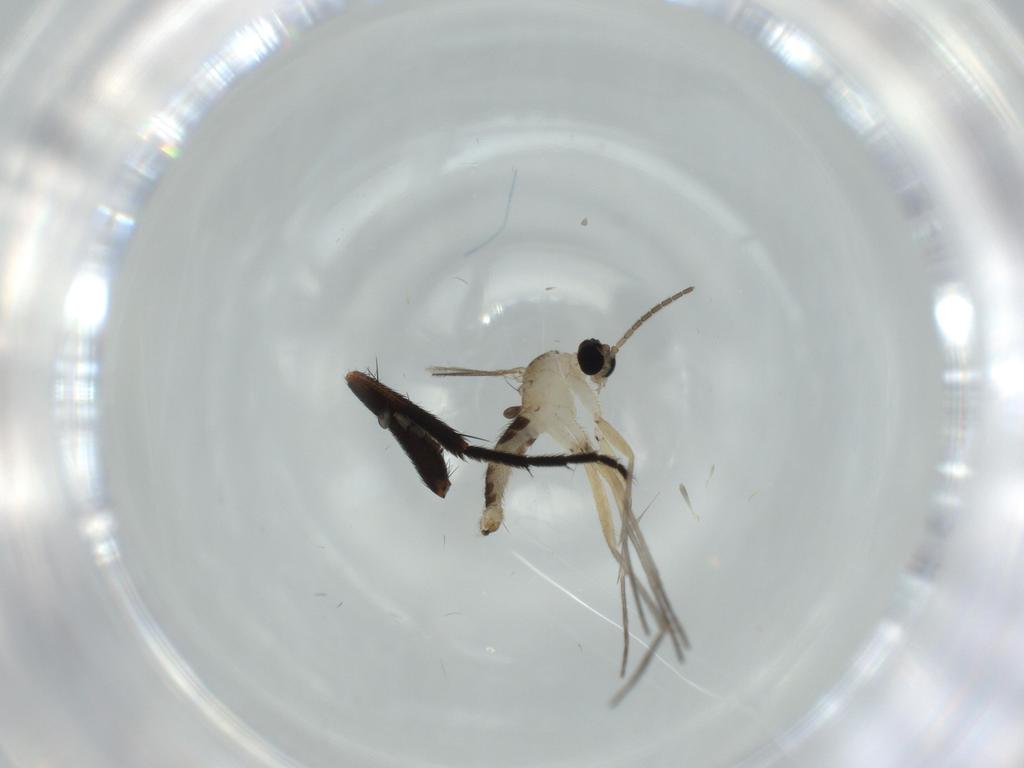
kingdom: Animalia
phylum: Arthropoda
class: Insecta
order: Diptera
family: Sciaridae
